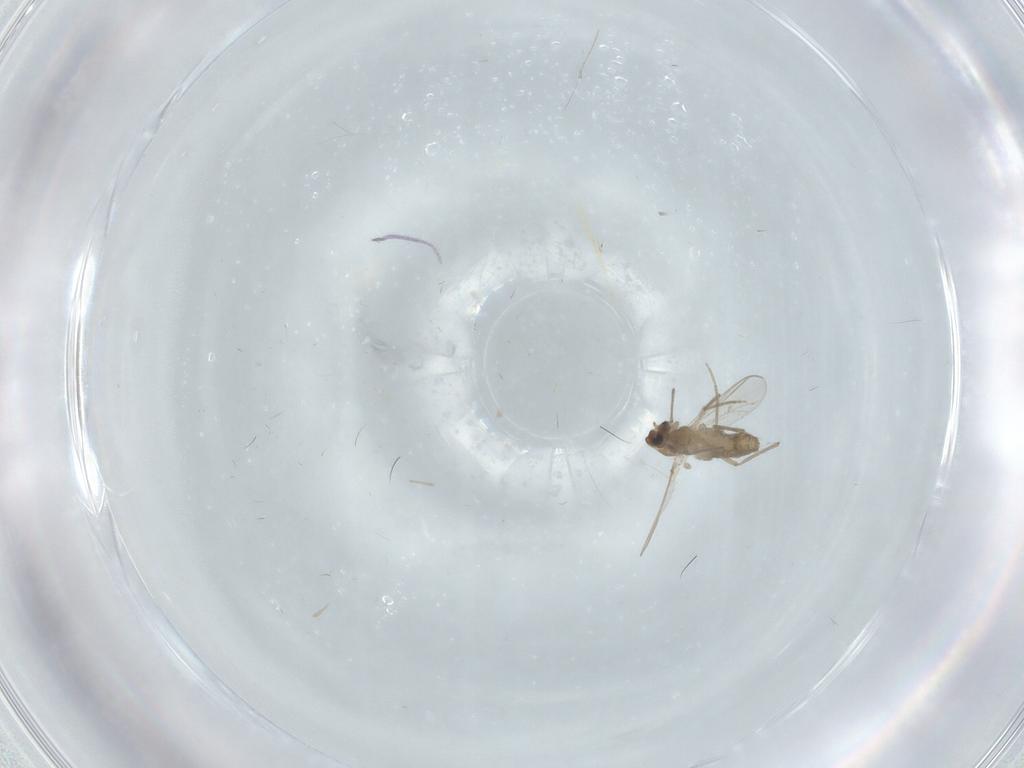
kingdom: Animalia
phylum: Arthropoda
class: Insecta
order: Diptera
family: Chironomidae
